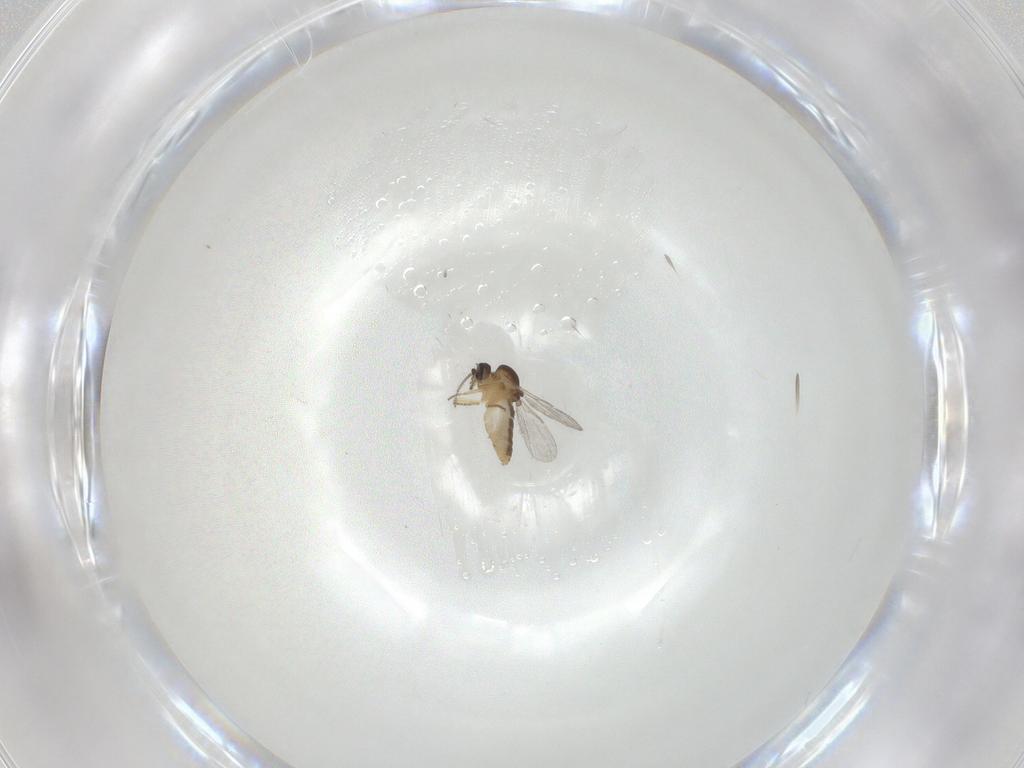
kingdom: Animalia
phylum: Arthropoda
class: Insecta
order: Diptera
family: Ceratopogonidae
